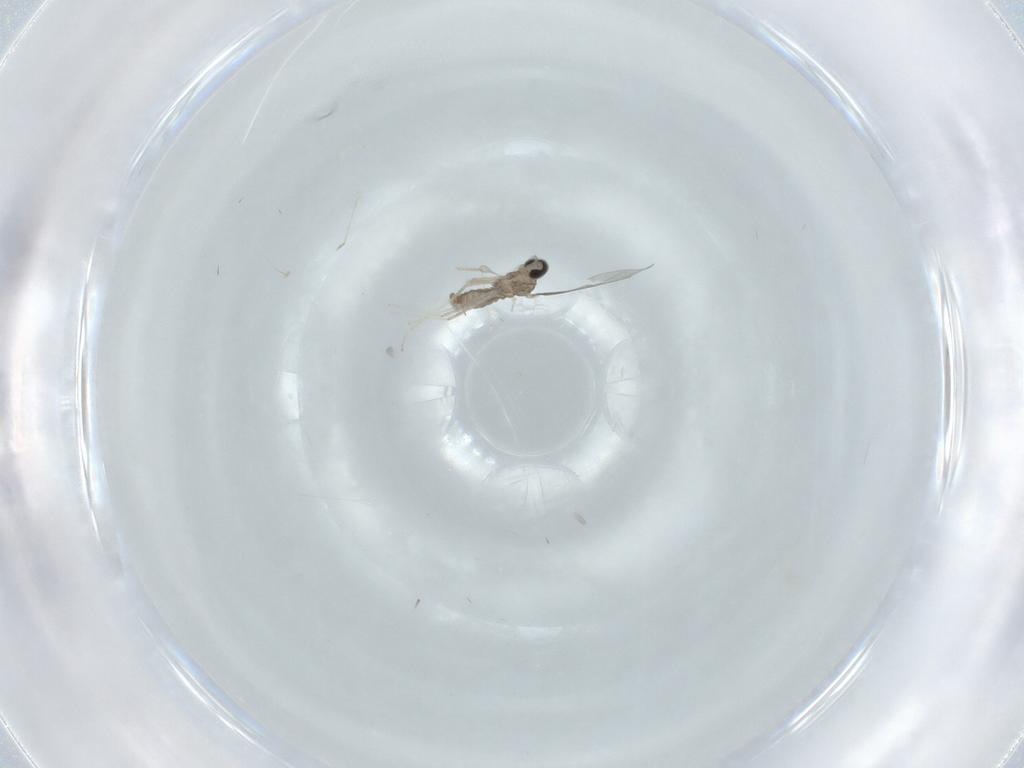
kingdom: Animalia
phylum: Arthropoda
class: Insecta
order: Diptera
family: Cecidomyiidae
